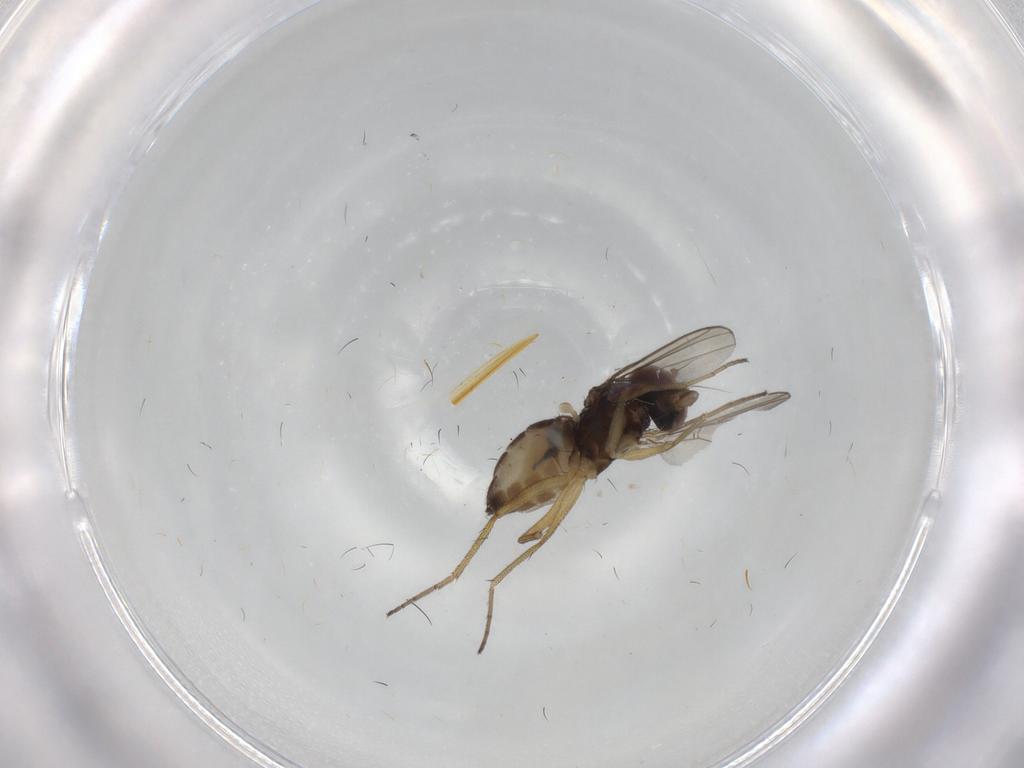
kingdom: Animalia
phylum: Arthropoda
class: Insecta
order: Diptera
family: Dolichopodidae
